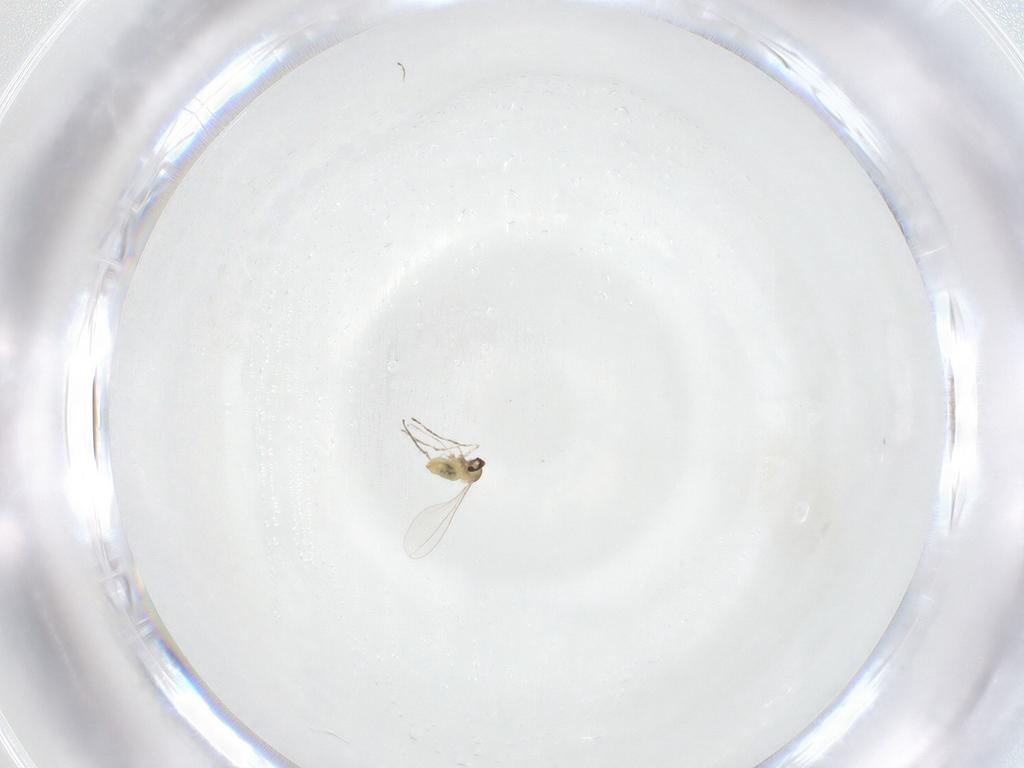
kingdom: Animalia
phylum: Arthropoda
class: Insecta
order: Diptera
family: Cecidomyiidae
